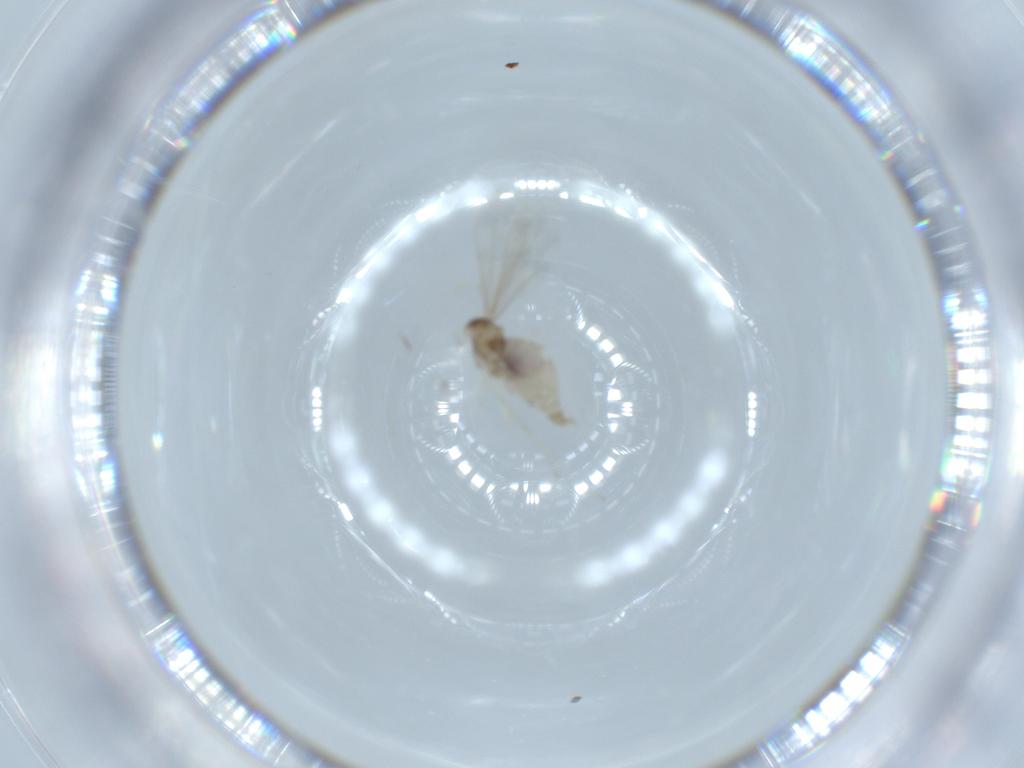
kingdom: Animalia
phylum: Arthropoda
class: Insecta
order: Diptera
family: Cecidomyiidae
